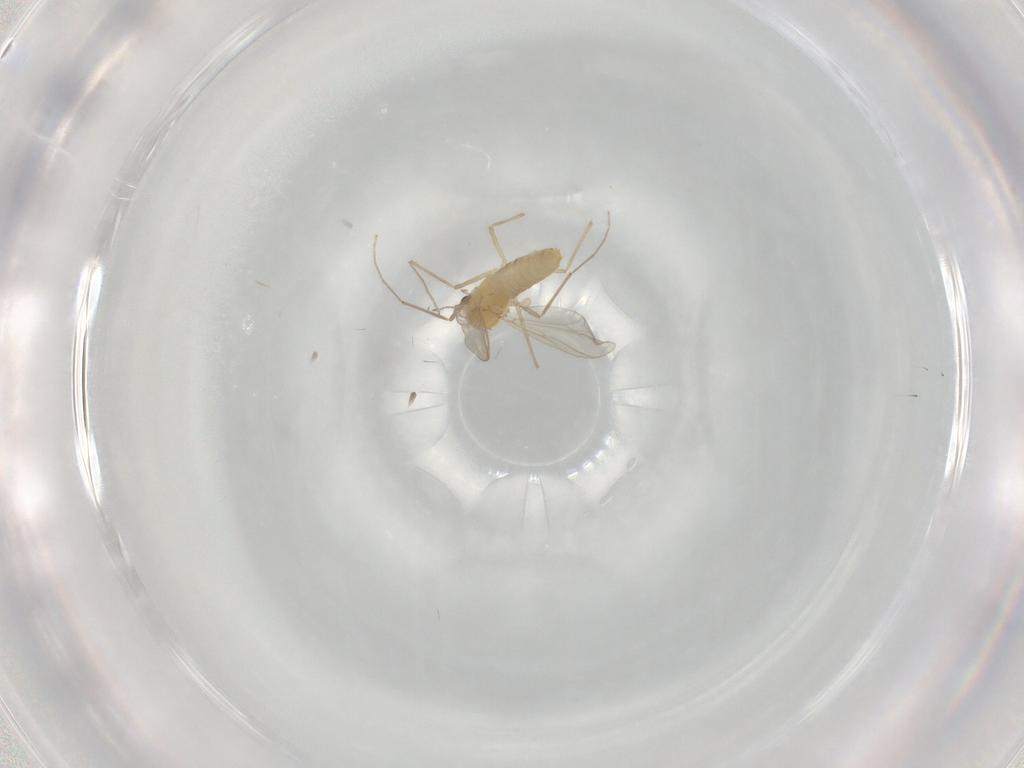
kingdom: Animalia
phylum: Arthropoda
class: Insecta
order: Diptera
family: Chironomidae
